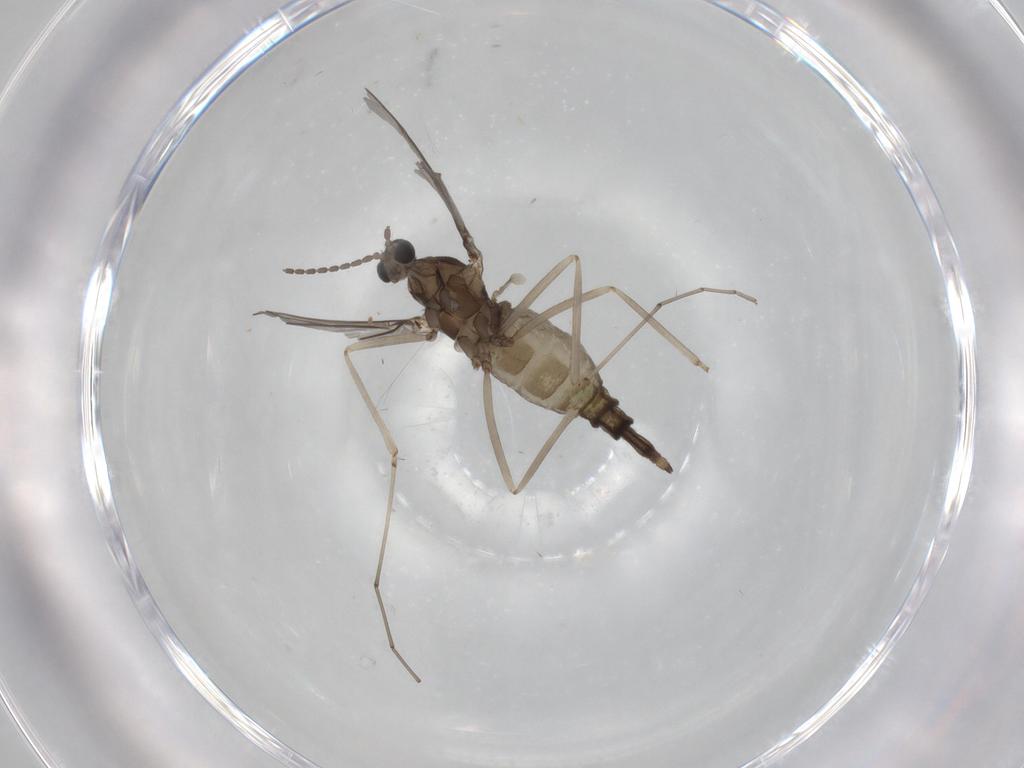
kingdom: Animalia
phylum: Arthropoda
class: Insecta
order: Diptera
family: Cecidomyiidae
